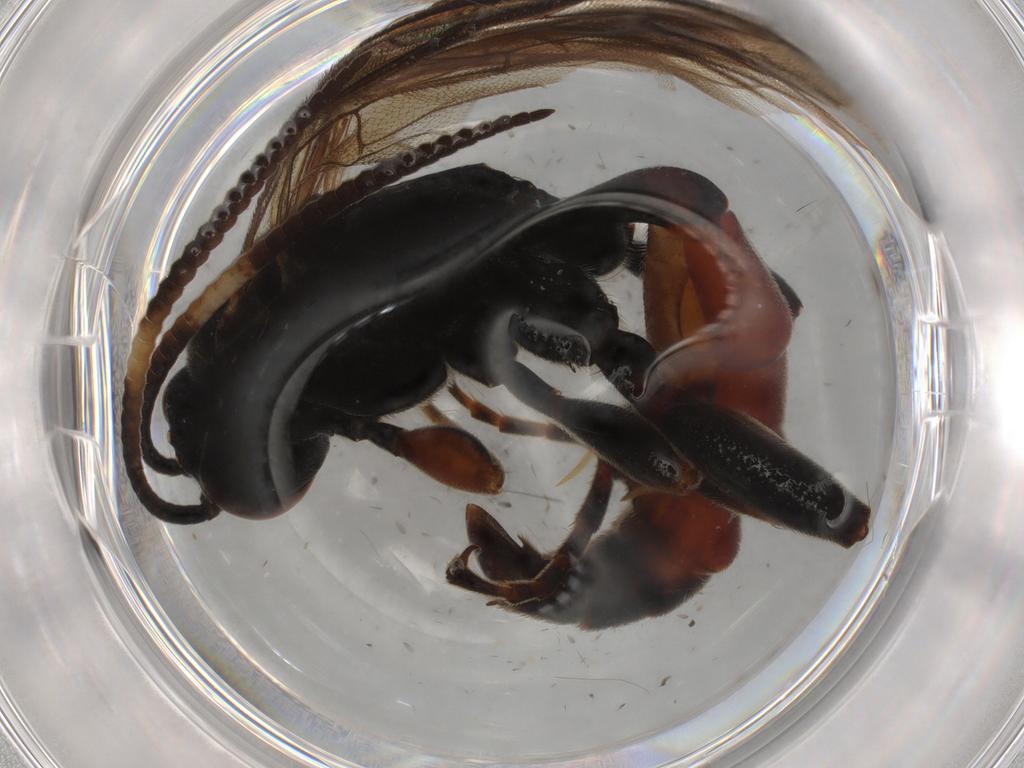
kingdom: Animalia
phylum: Arthropoda
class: Insecta
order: Hymenoptera
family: Ichneumonidae
